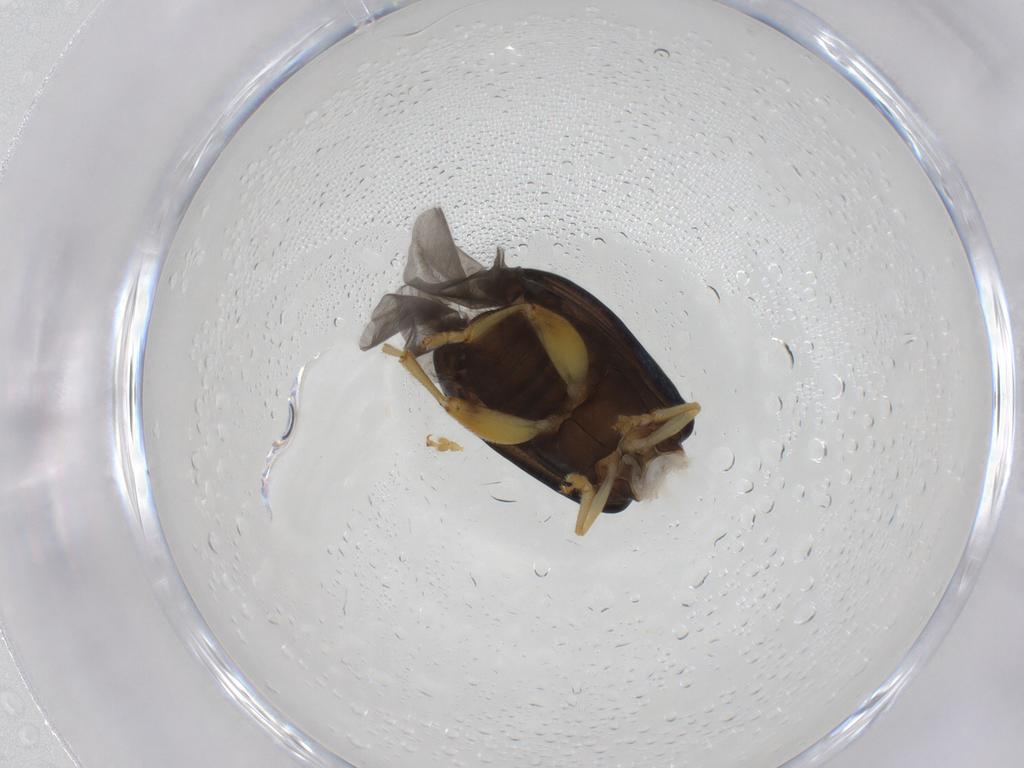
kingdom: Animalia
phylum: Arthropoda
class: Insecta
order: Coleoptera
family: Chrysomelidae
